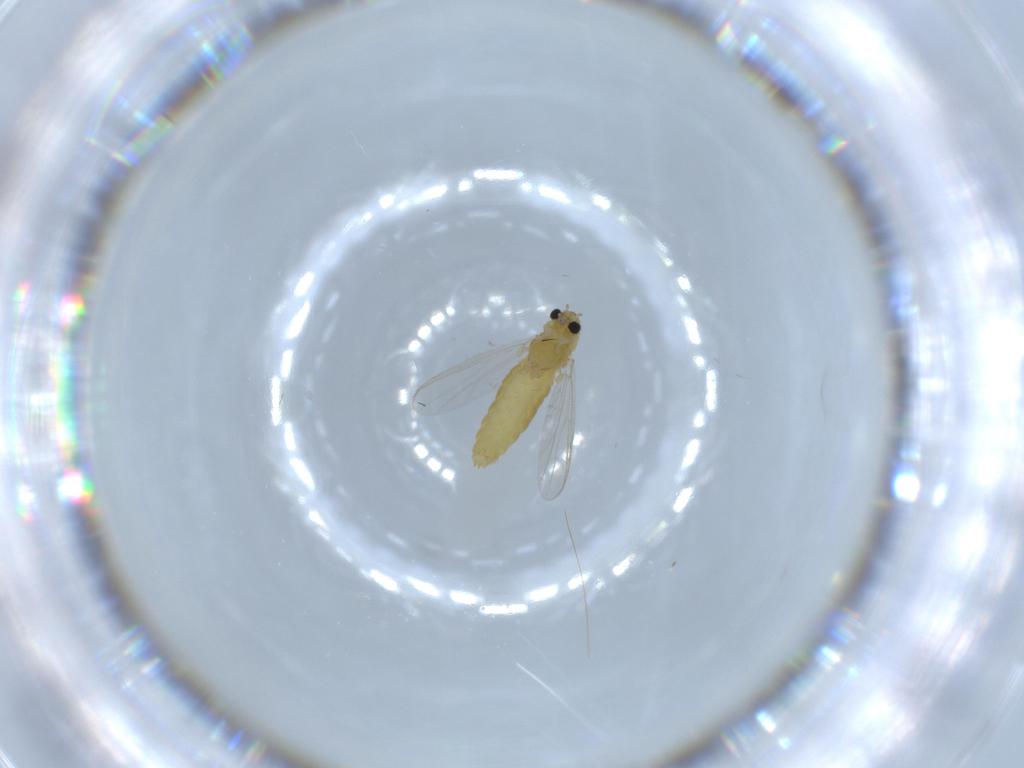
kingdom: Animalia
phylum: Arthropoda
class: Insecta
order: Diptera
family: Chironomidae
